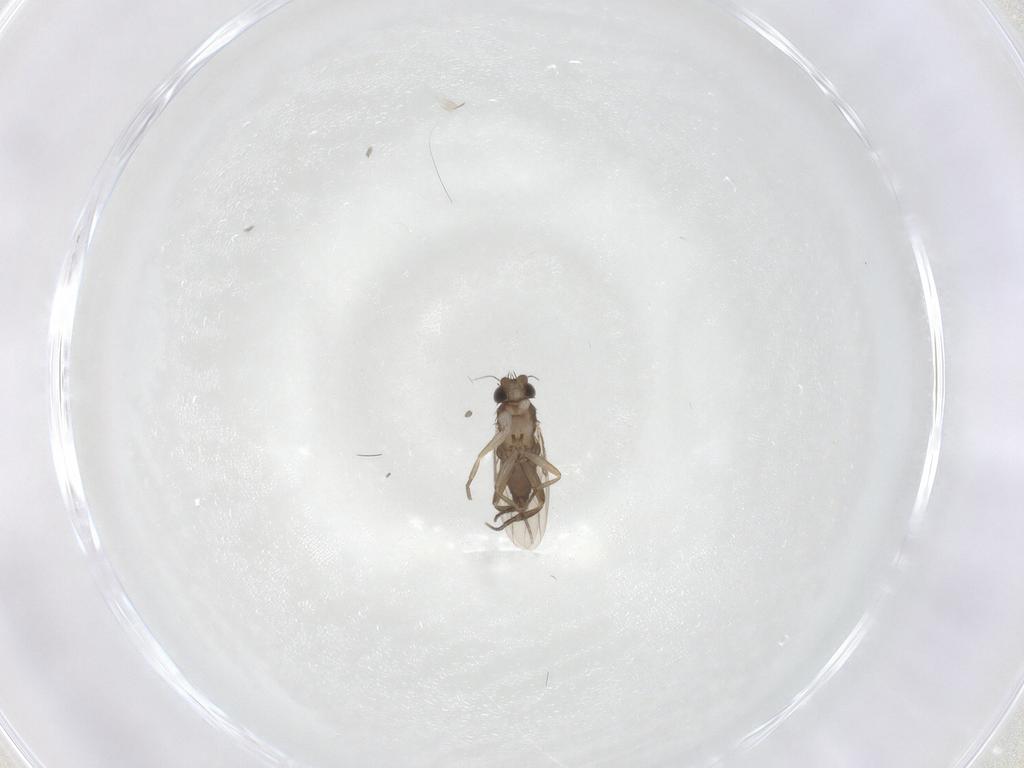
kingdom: Animalia
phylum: Arthropoda
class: Insecta
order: Diptera
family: Phoridae
